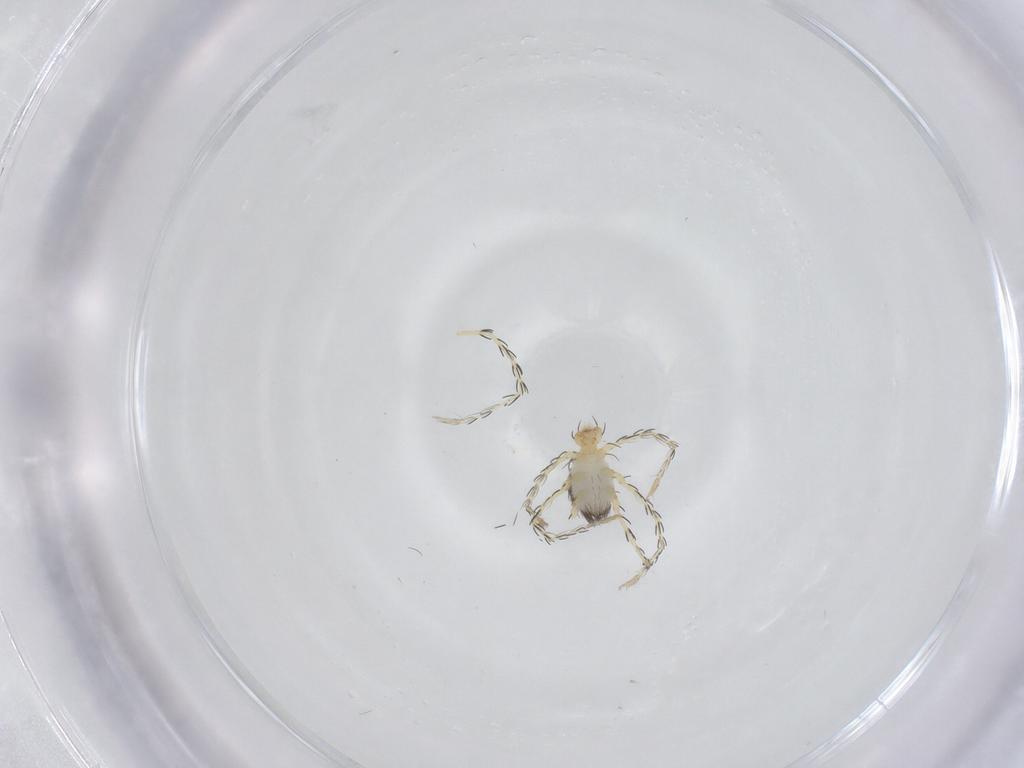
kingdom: Animalia
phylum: Arthropoda
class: Arachnida
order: Trombidiformes
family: Erythraeidae
